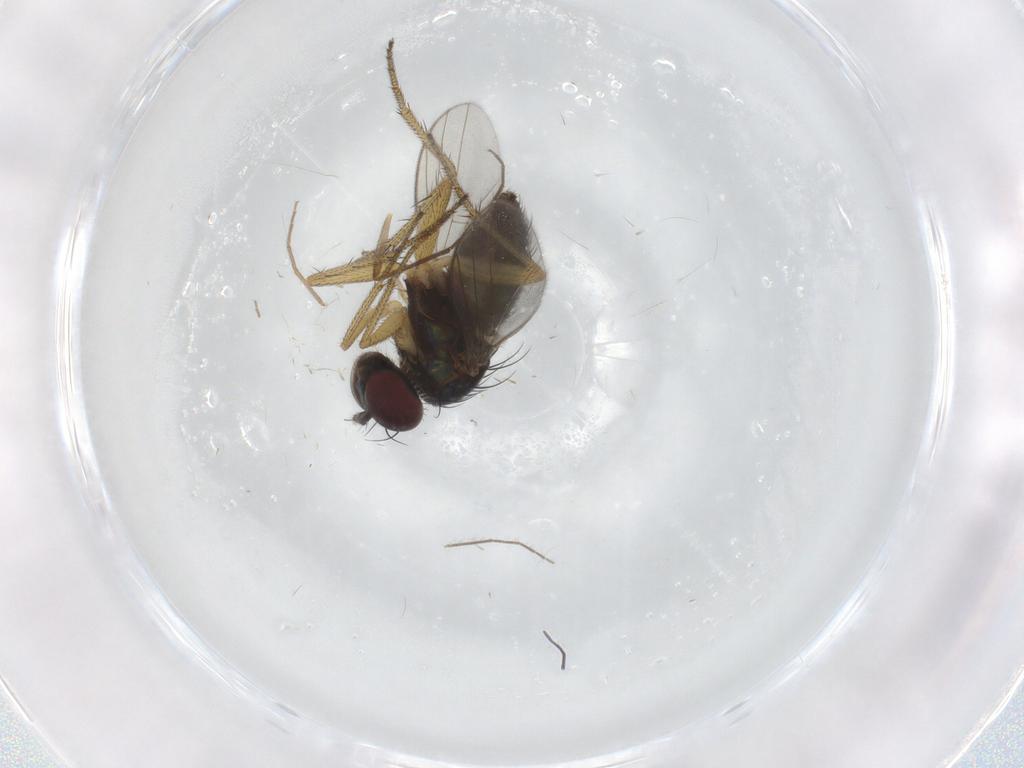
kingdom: Animalia
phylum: Arthropoda
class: Insecta
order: Diptera
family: Drosophilidae
